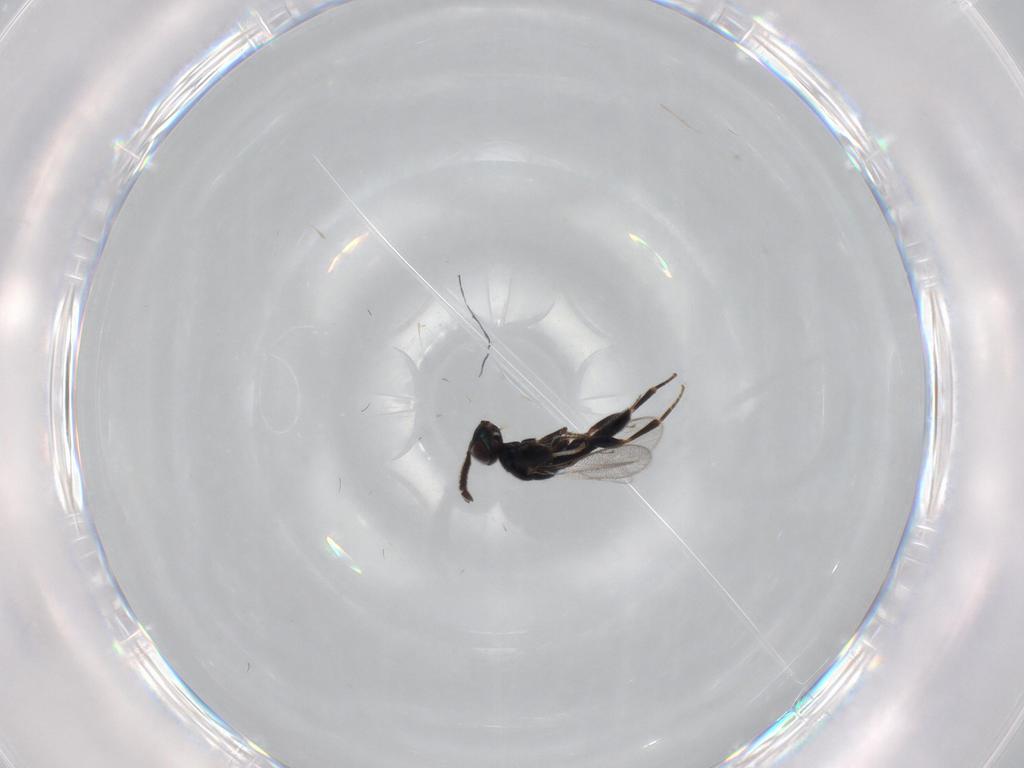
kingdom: Animalia
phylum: Arthropoda
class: Insecta
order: Hymenoptera
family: Cleonyminae
